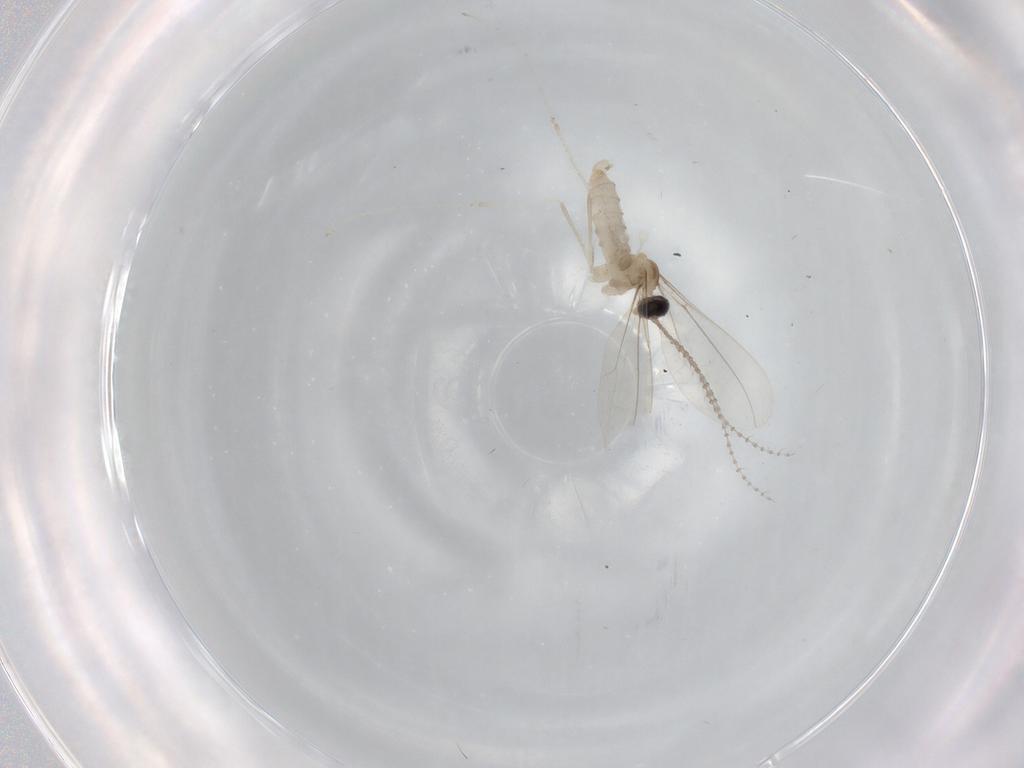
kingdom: Animalia
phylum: Arthropoda
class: Insecta
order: Diptera
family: Cecidomyiidae
